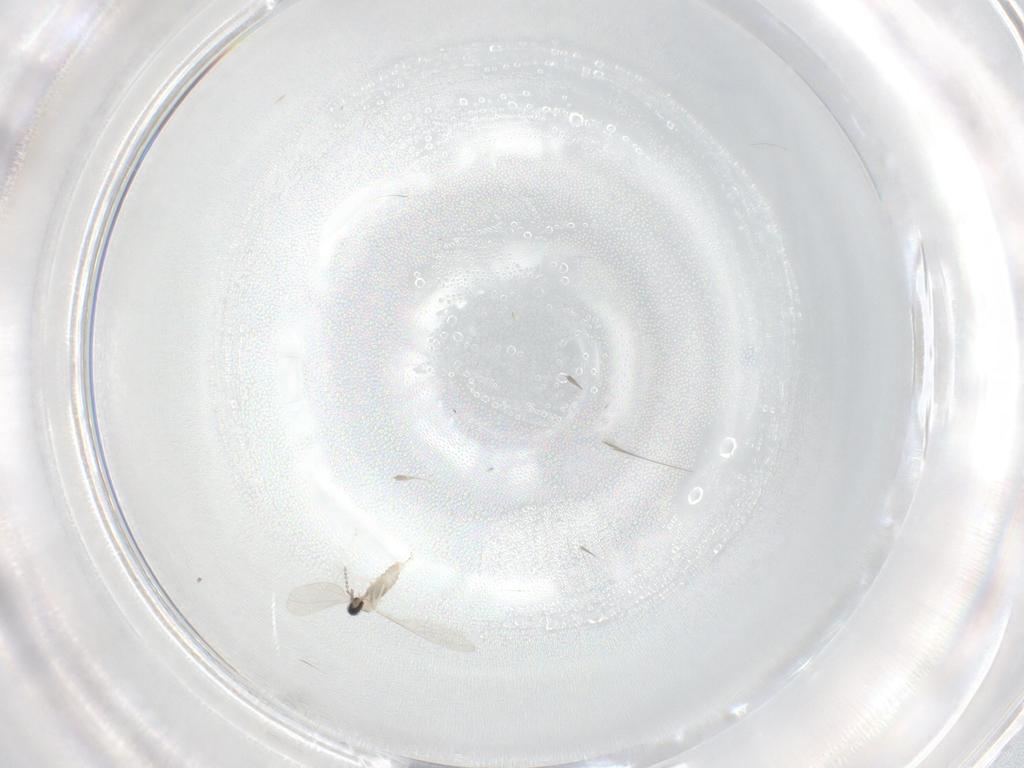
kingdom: Animalia
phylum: Arthropoda
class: Insecta
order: Diptera
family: Cecidomyiidae
